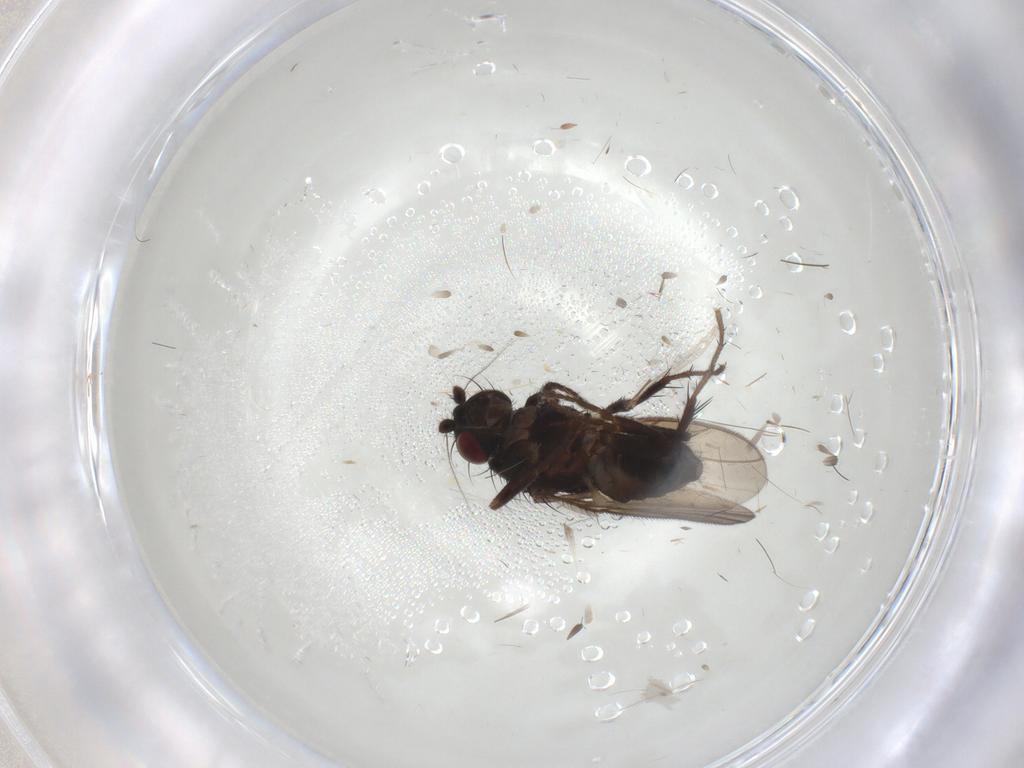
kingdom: Animalia
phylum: Arthropoda
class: Insecta
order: Diptera
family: Sphaeroceridae
